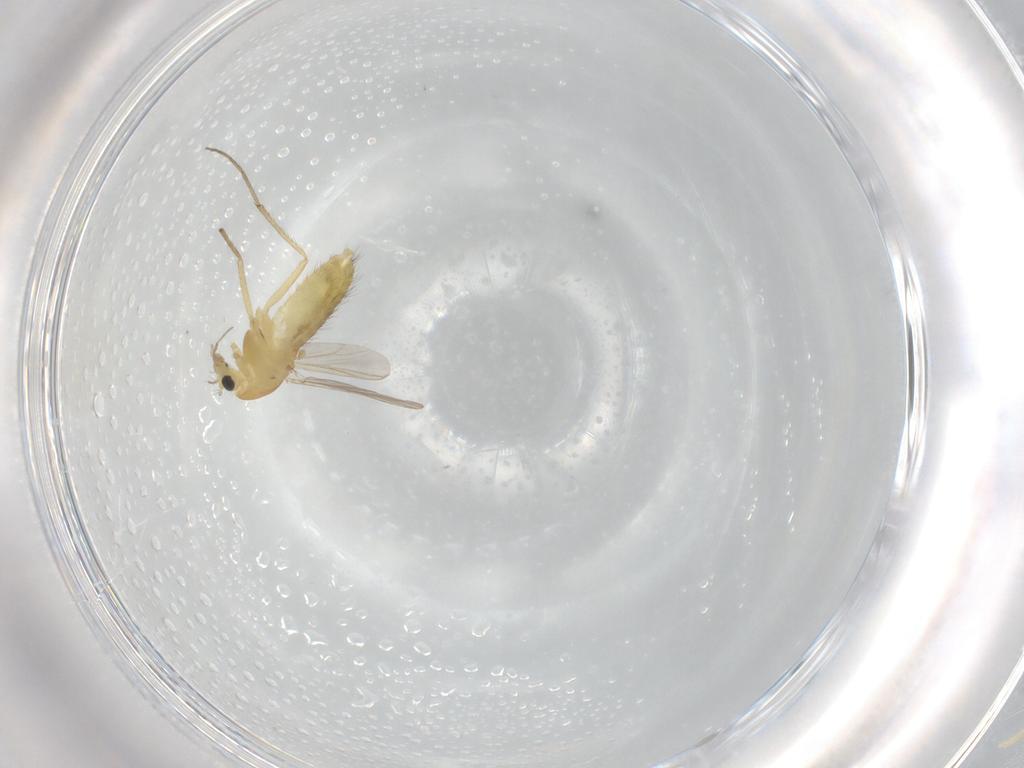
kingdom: Animalia
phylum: Arthropoda
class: Insecta
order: Diptera
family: Chironomidae
